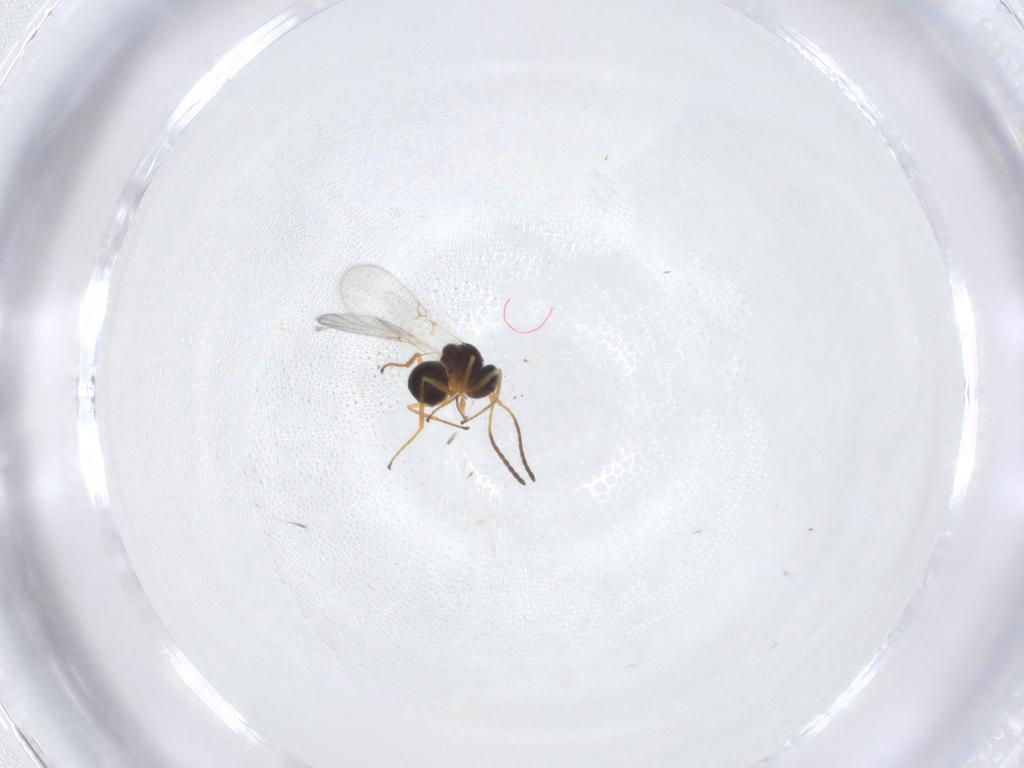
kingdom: Animalia
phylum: Arthropoda
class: Insecta
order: Hymenoptera
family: Figitidae
